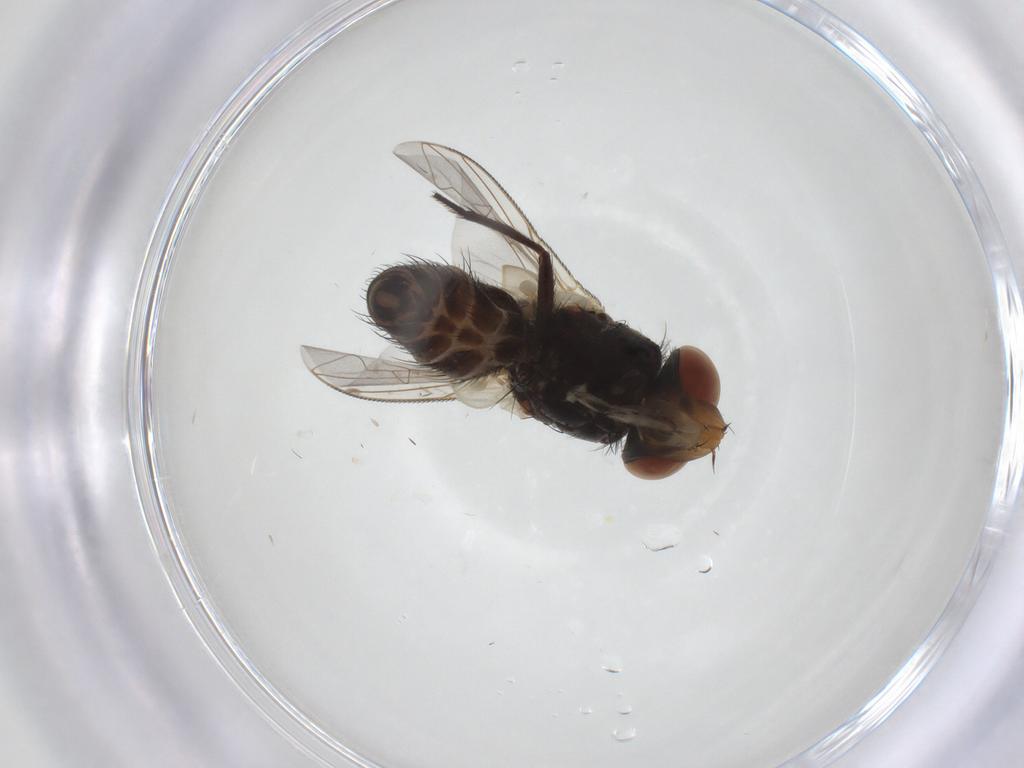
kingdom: Animalia
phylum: Arthropoda
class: Insecta
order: Diptera
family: Sarcophagidae
